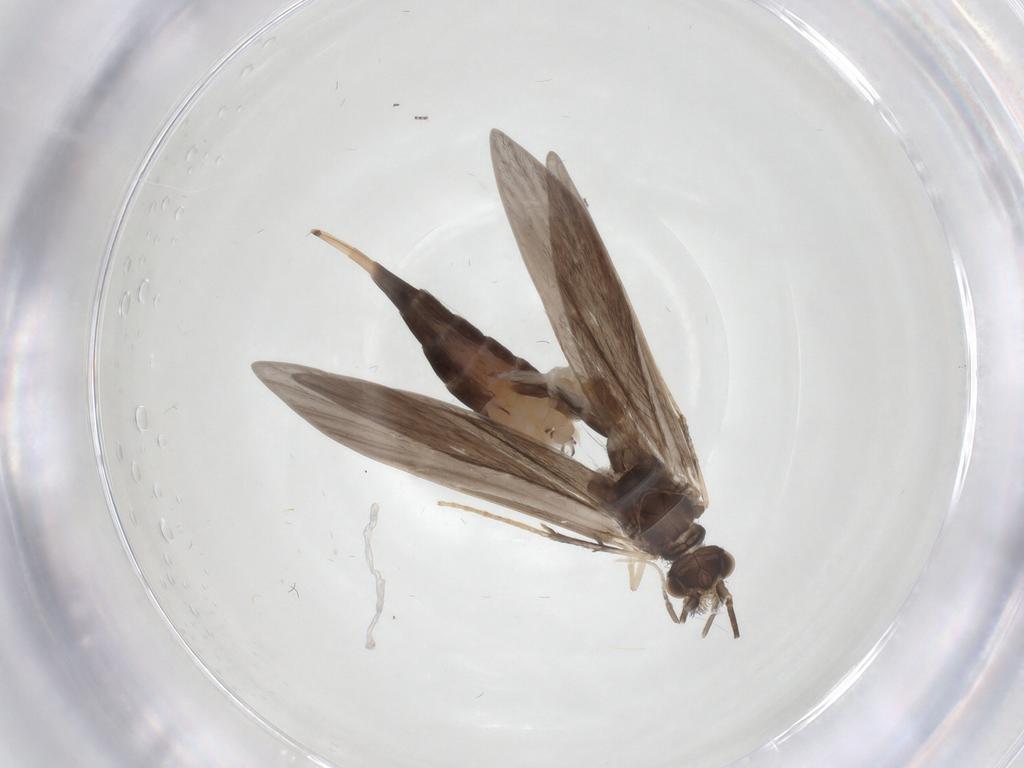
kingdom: Animalia
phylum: Arthropoda
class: Insecta
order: Trichoptera
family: Xiphocentronidae
